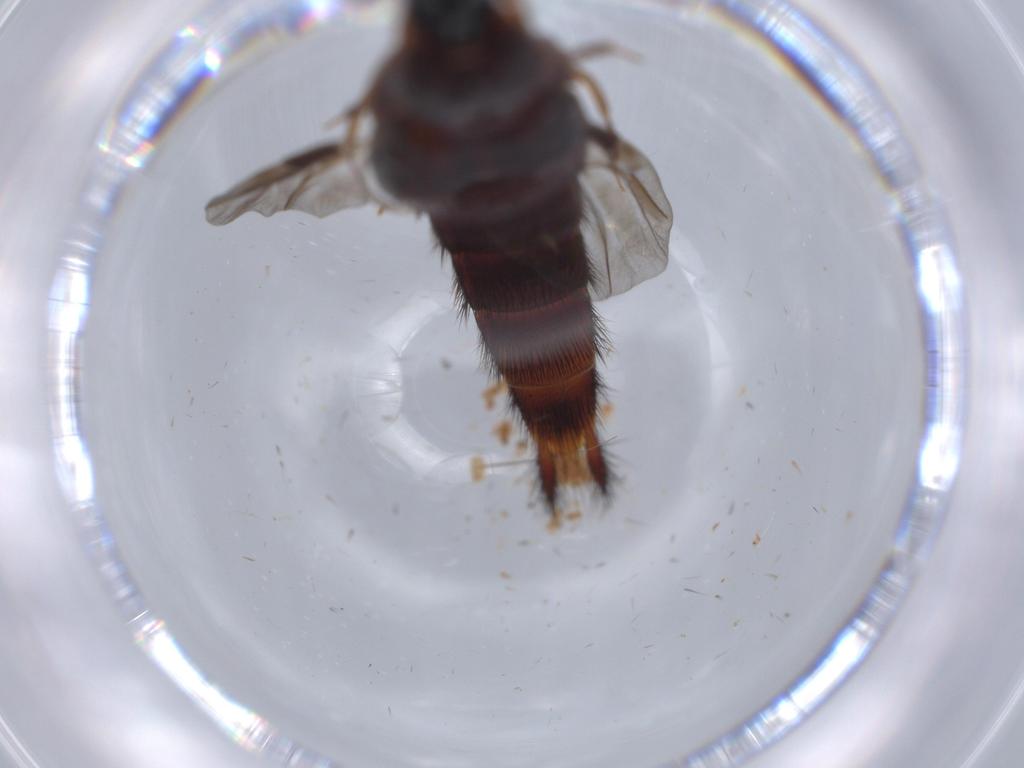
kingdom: Animalia
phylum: Arthropoda
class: Insecta
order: Coleoptera
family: Staphylinidae
